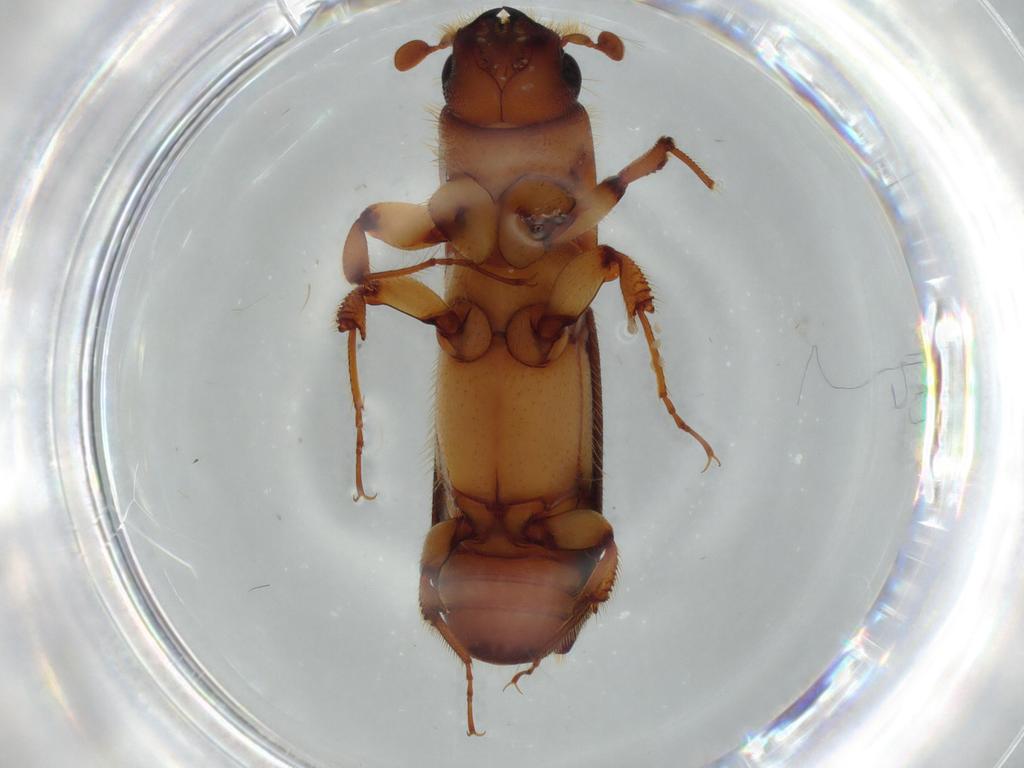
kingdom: Animalia
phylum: Arthropoda
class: Insecta
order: Coleoptera
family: Curculionidae
